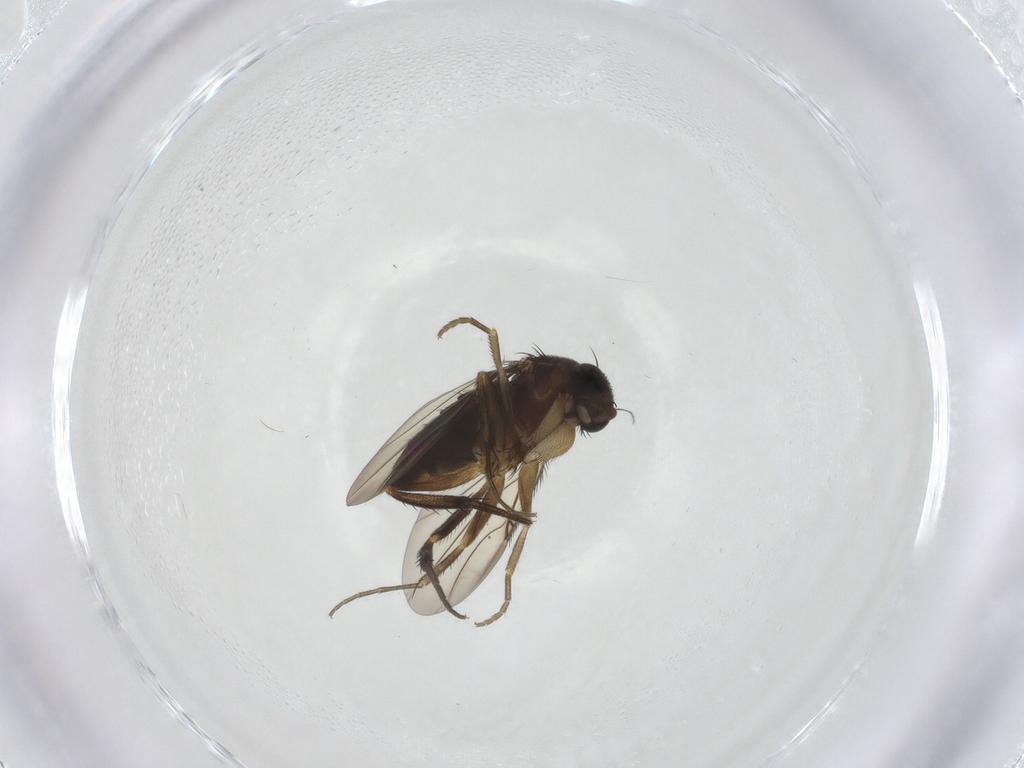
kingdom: Animalia
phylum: Arthropoda
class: Insecta
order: Diptera
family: Phoridae
